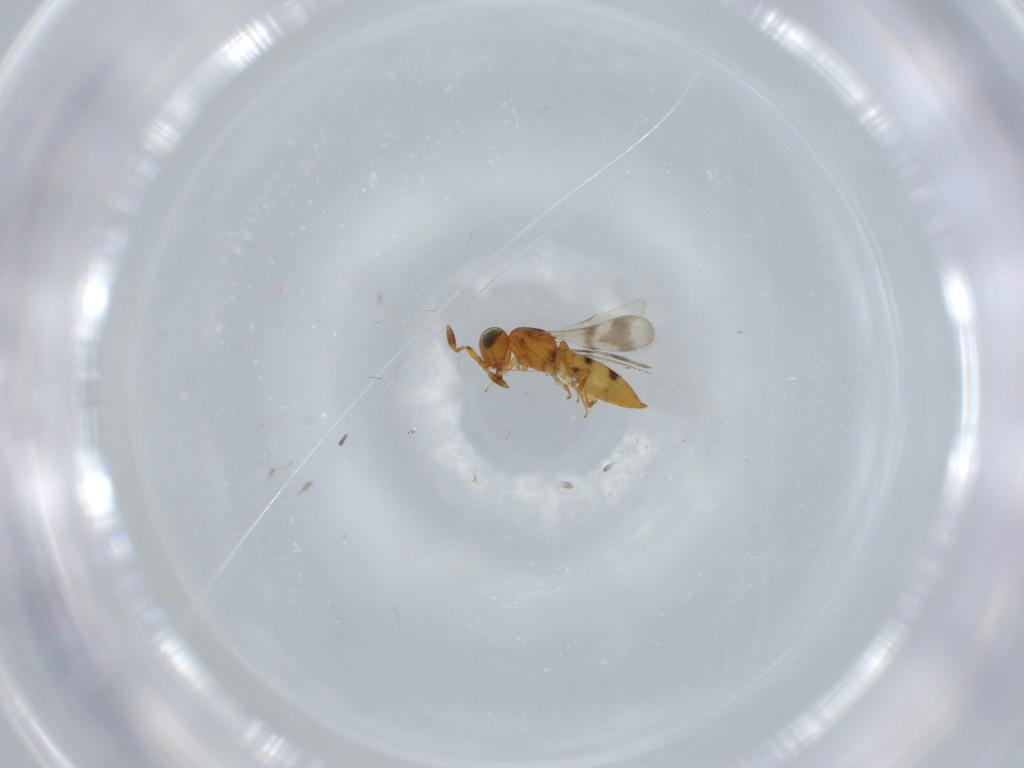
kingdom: Animalia
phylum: Arthropoda
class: Insecta
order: Hymenoptera
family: Scelionidae
